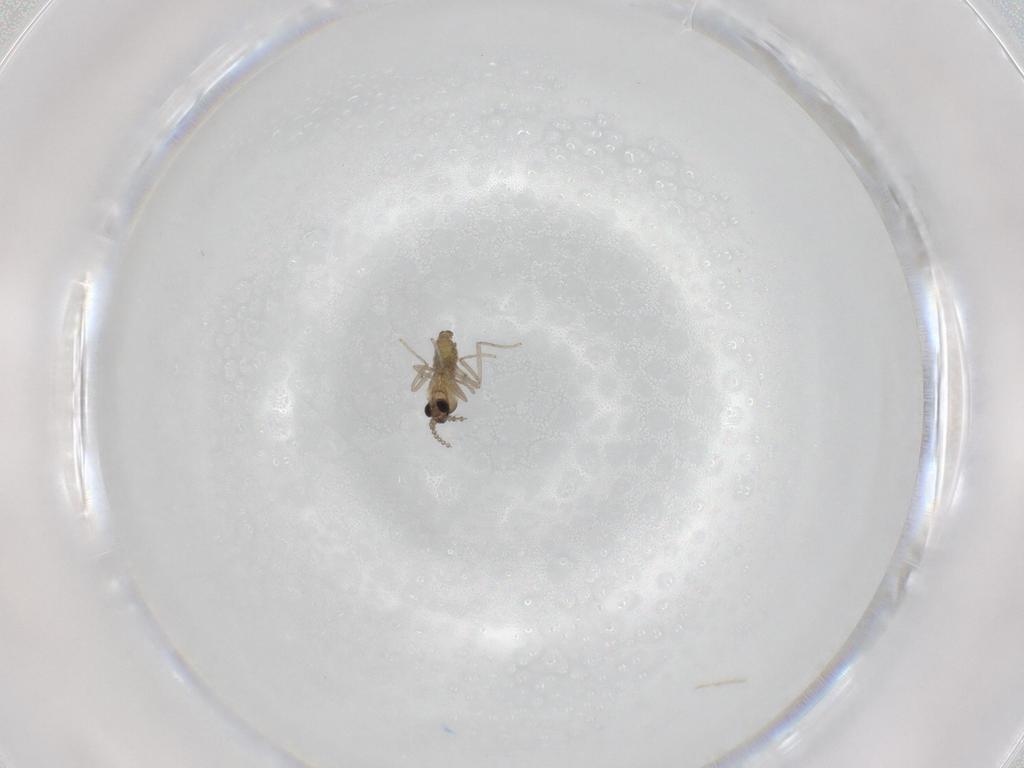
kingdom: Animalia
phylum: Arthropoda
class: Insecta
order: Diptera
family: Cecidomyiidae
